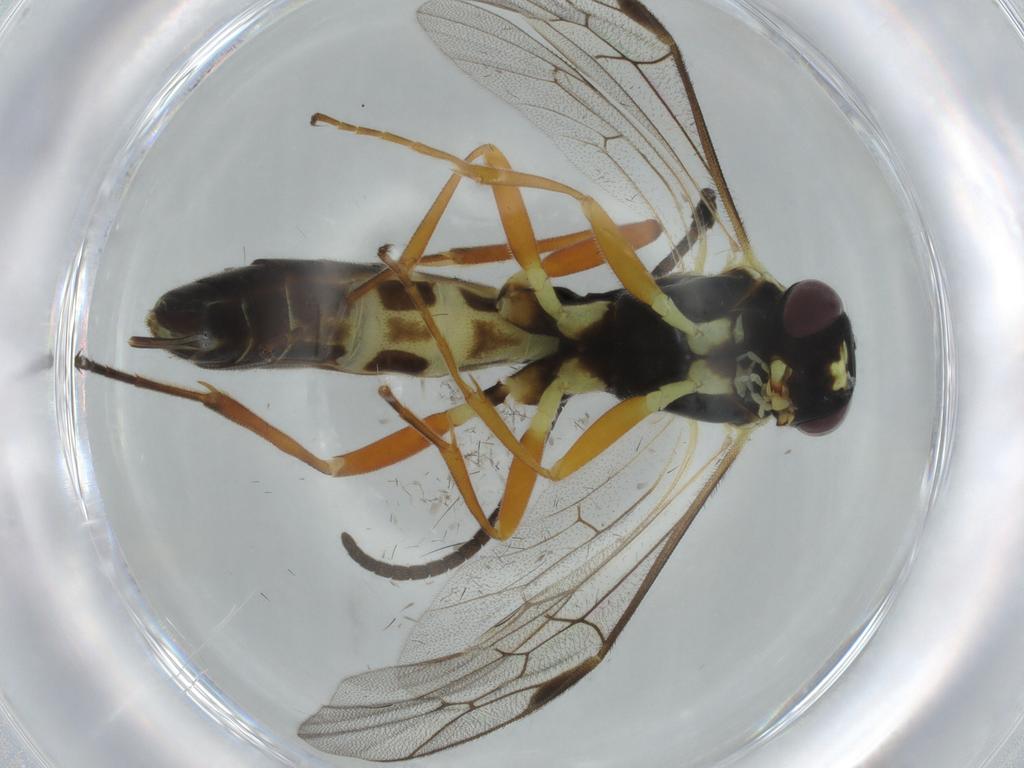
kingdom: Animalia
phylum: Arthropoda
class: Insecta
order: Hymenoptera
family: Ichneumonidae
